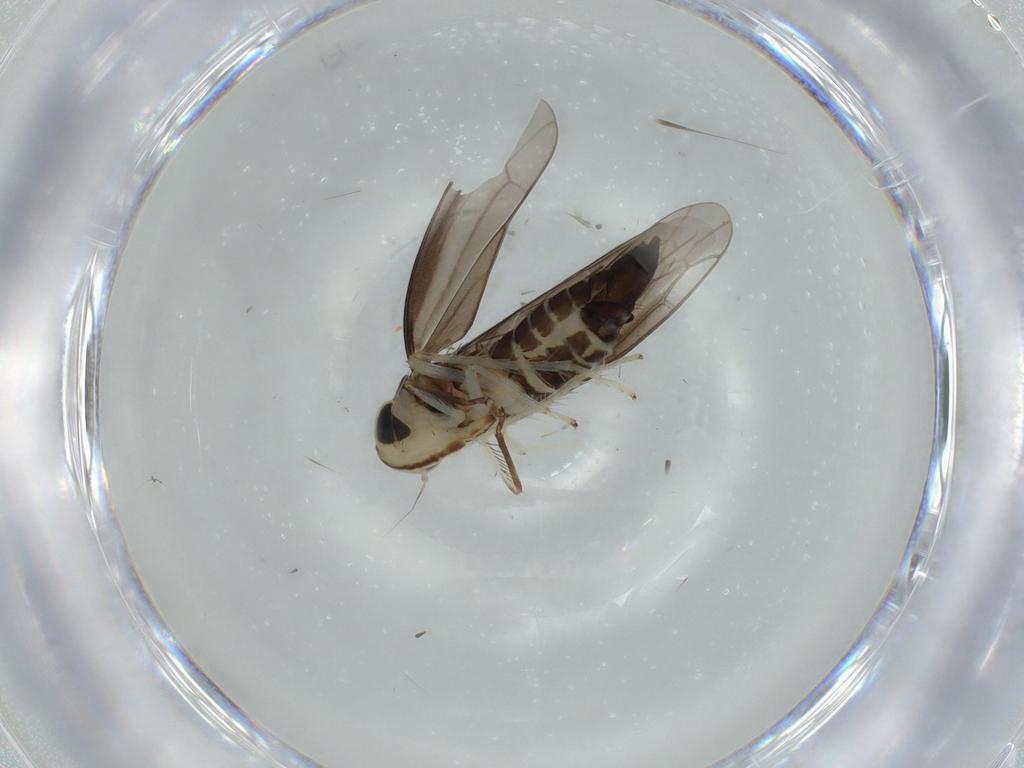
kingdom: Animalia
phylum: Arthropoda
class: Insecta
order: Hemiptera
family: Cicadellidae
